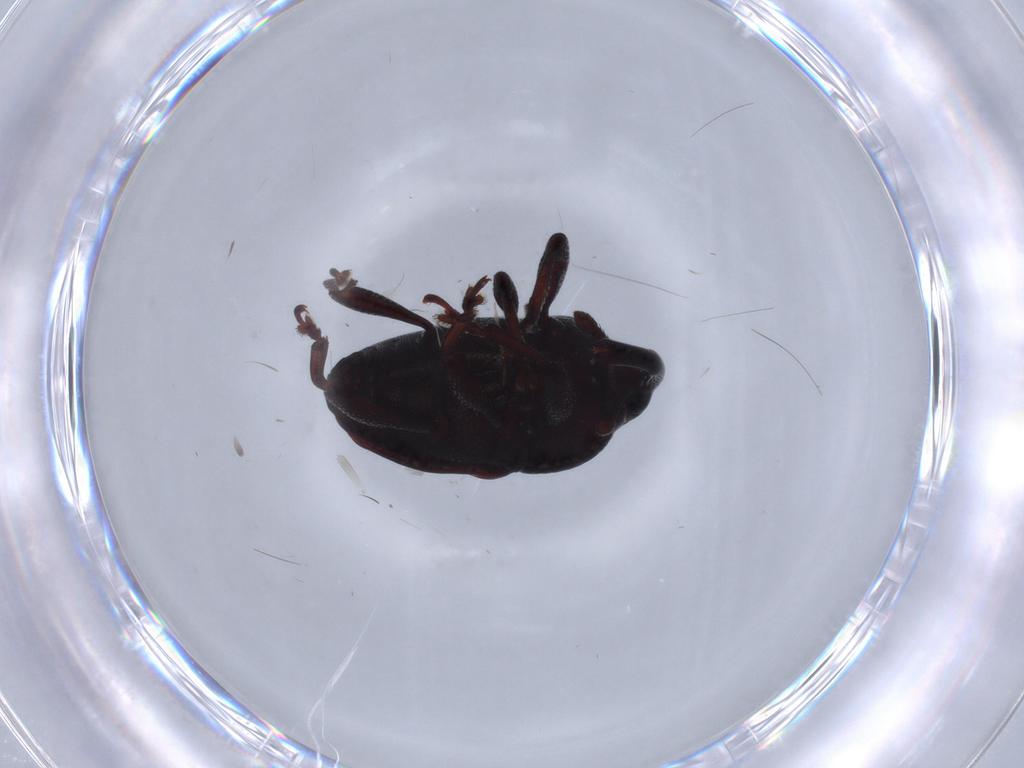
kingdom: Animalia
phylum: Arthropoda
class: Insecta
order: Coleoptera
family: Curculionidae
